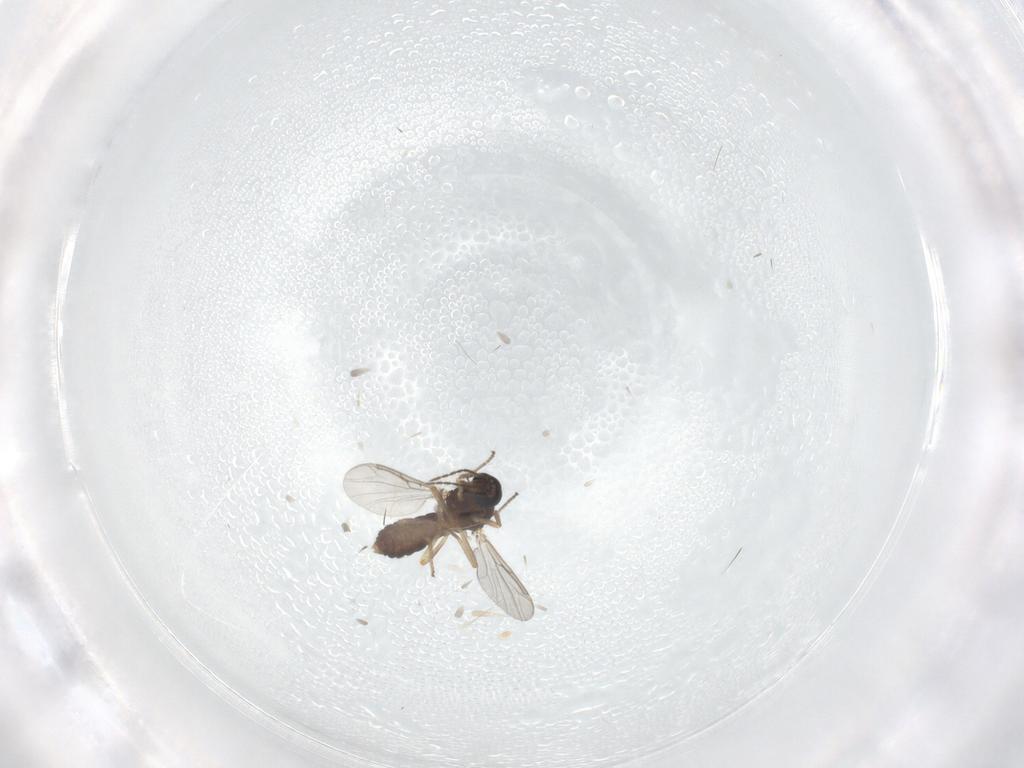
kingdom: Animalia
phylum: Arthropoda
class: Insecta
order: Diptera
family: Ceratopogonidae
